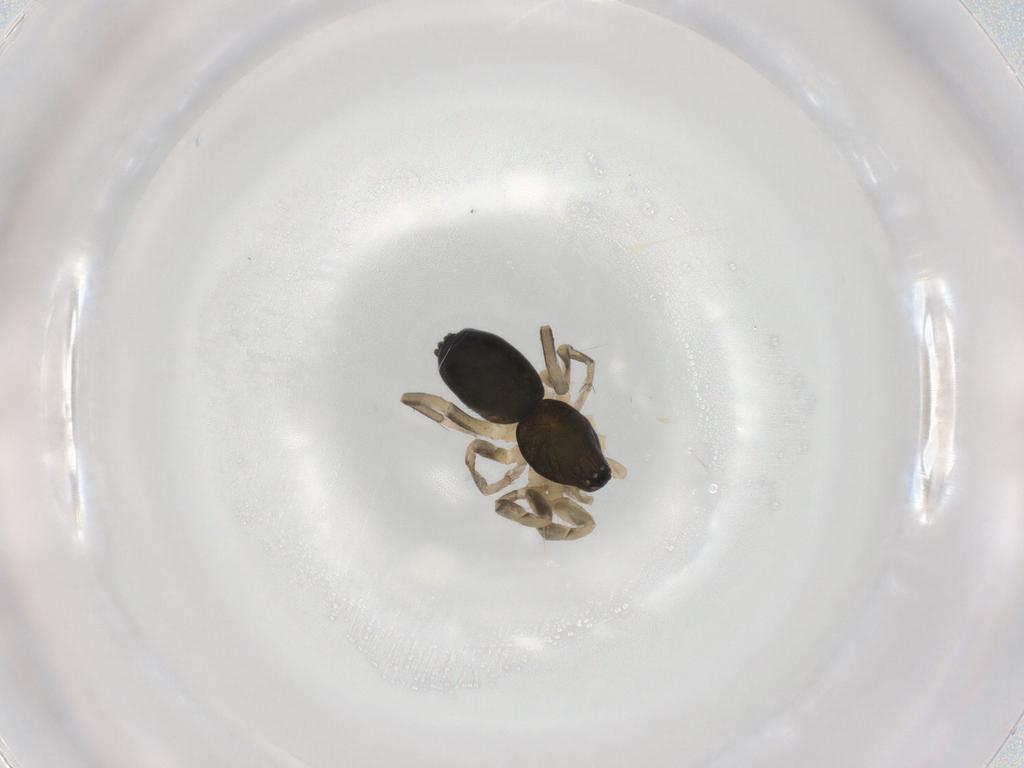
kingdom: Animalia
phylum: Arthropoda
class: Arachnida
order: Araneae
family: Gnaphosidae
